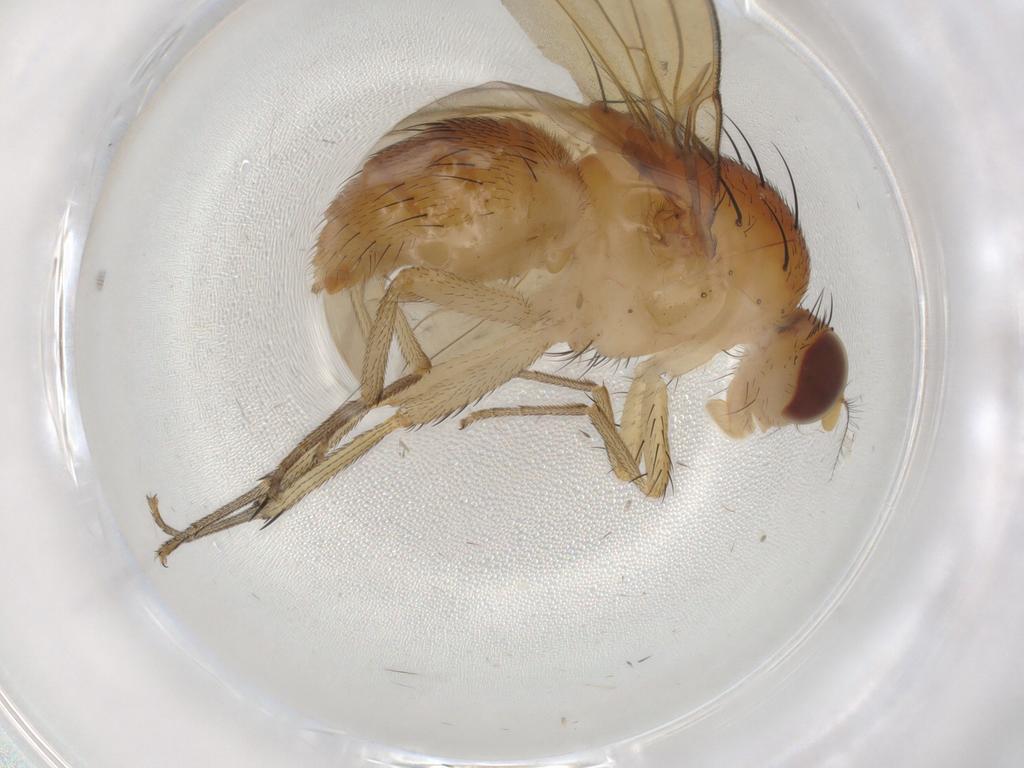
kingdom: Animalia
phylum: Arthropoda
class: Insecta
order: Diptera
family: Cecidomyiidae
